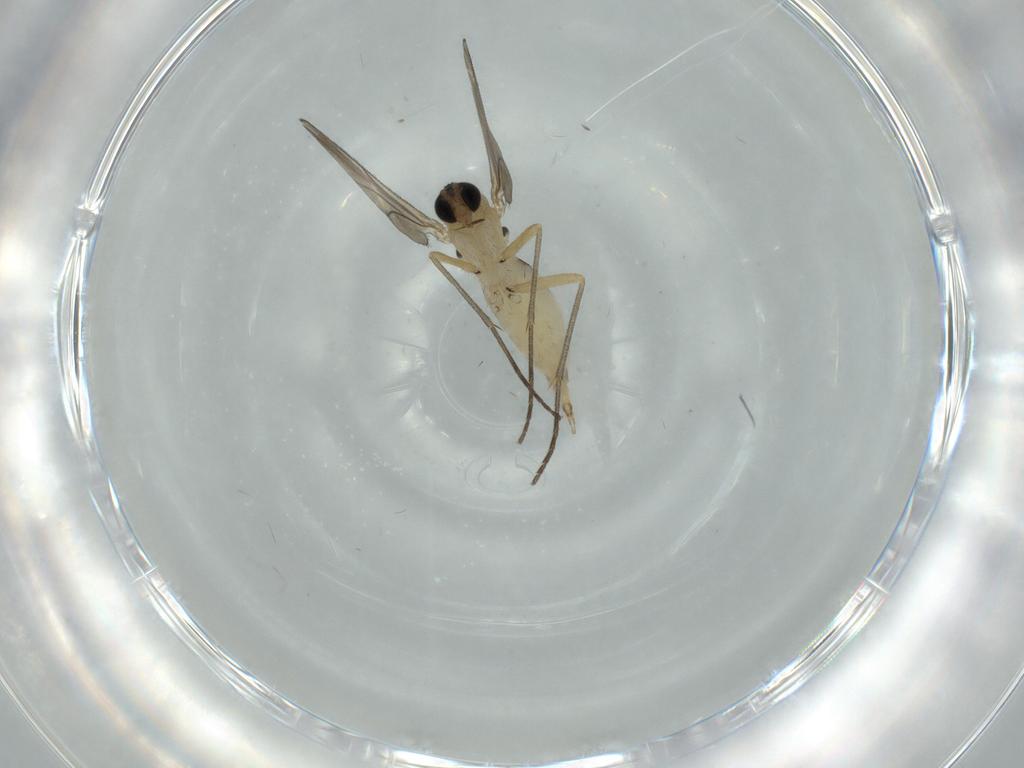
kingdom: Animalia
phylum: Arthropoda
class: Insecta
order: Diptera
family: Sciaridae
